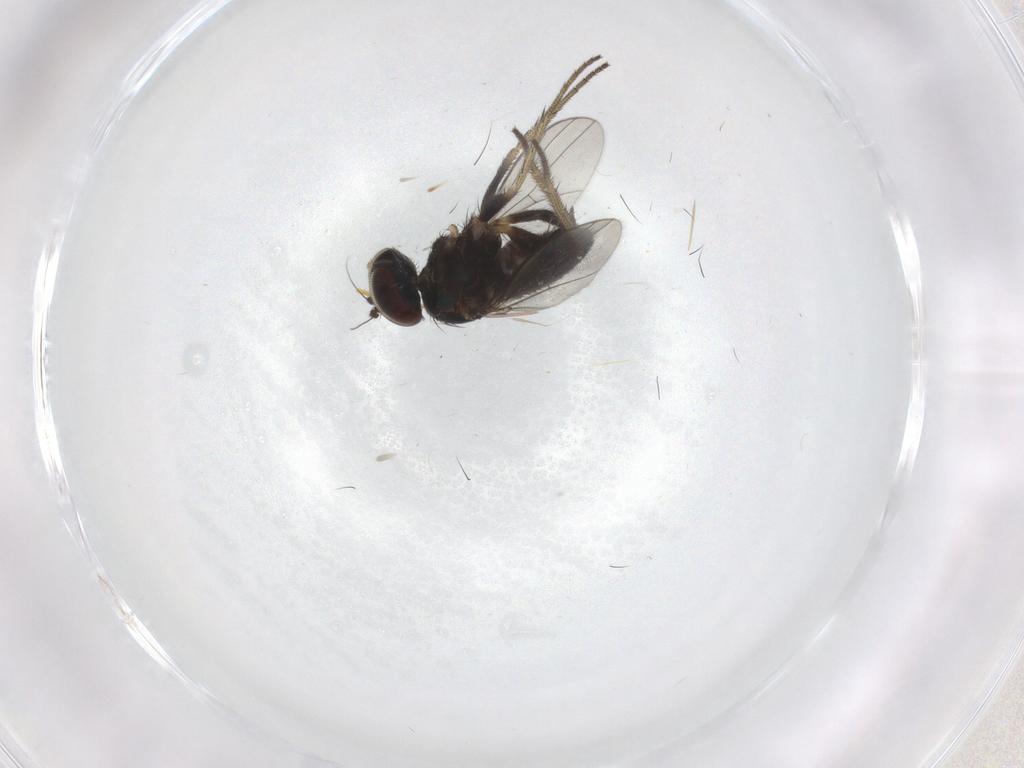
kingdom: Animalia
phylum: Arthropoda
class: Insecta
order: Diptera
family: Dolichopodidae
